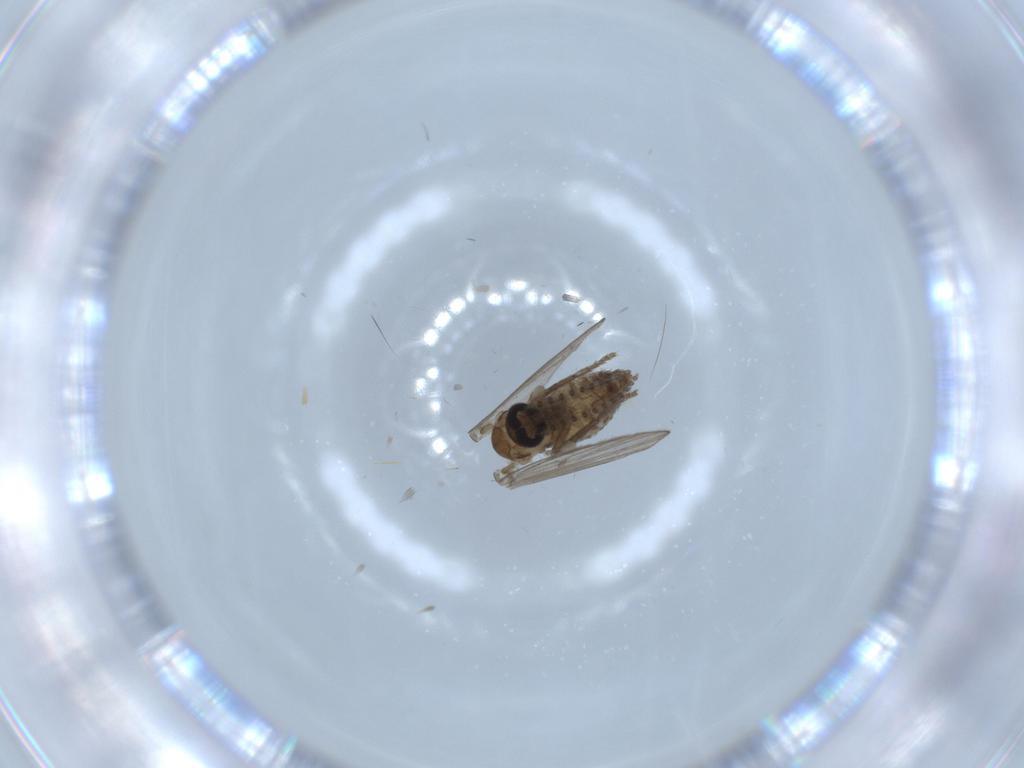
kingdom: Animalia
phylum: Arthropoda
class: Insecta
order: Diptera
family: Psychodidae
